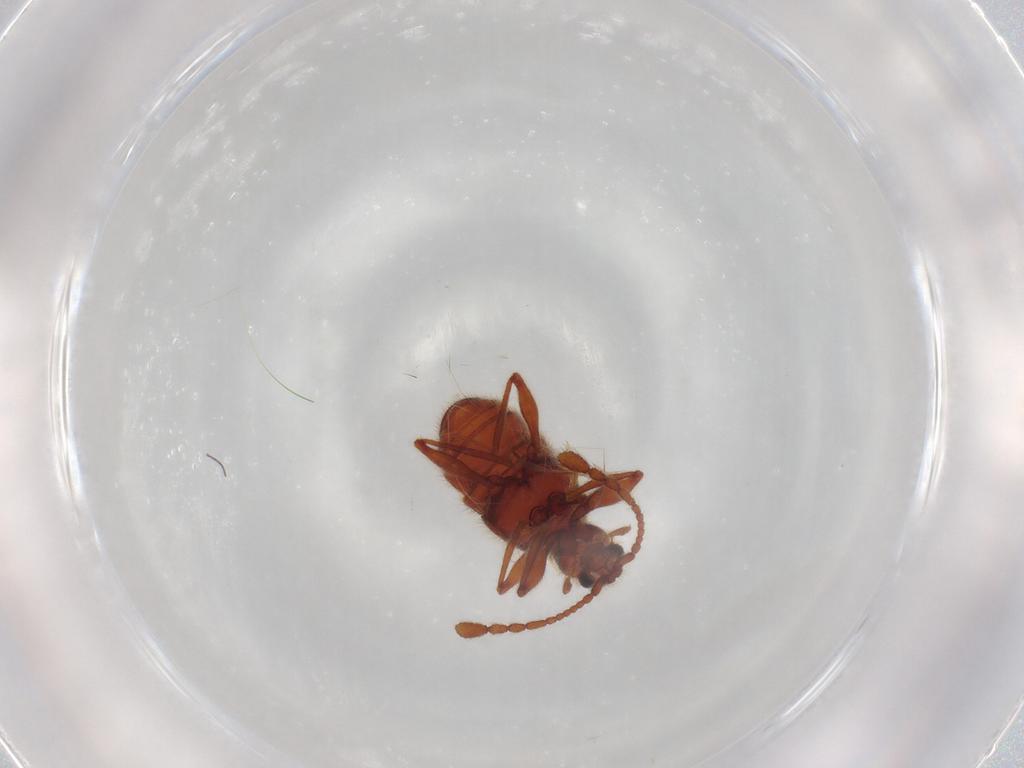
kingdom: Animalia
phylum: Arthropoda
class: Insecta
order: Coleoptera
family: Staphylinidae
